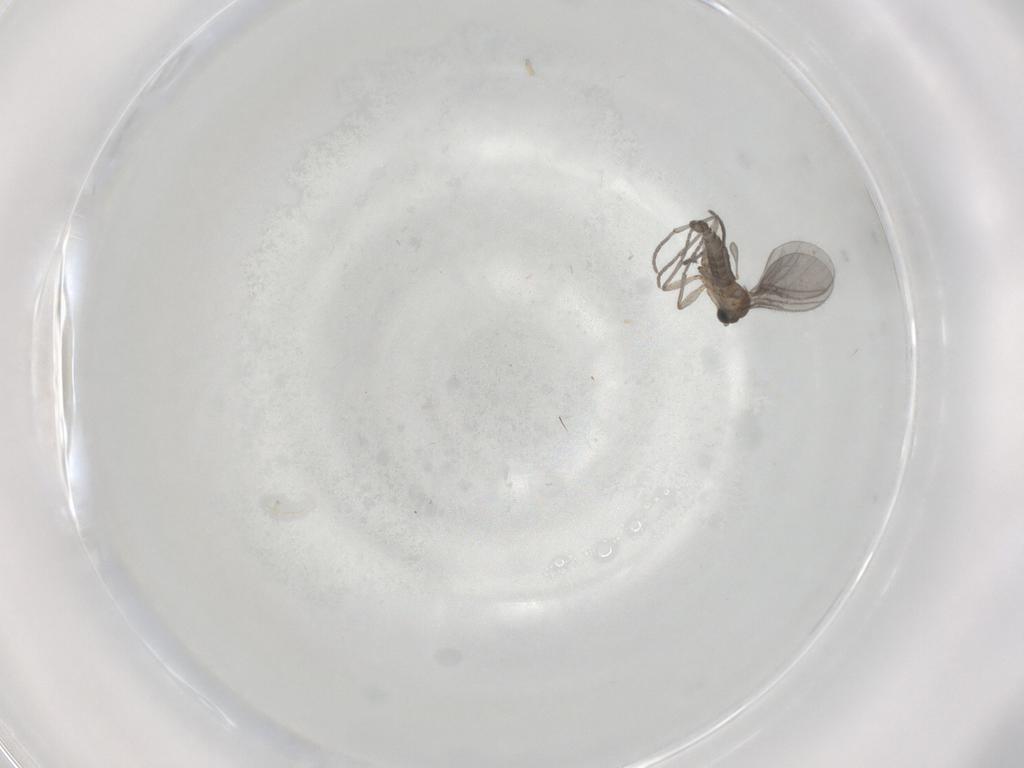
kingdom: Animalia
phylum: Arthropoda
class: Insecta
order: Diptera
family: Sciaridae
